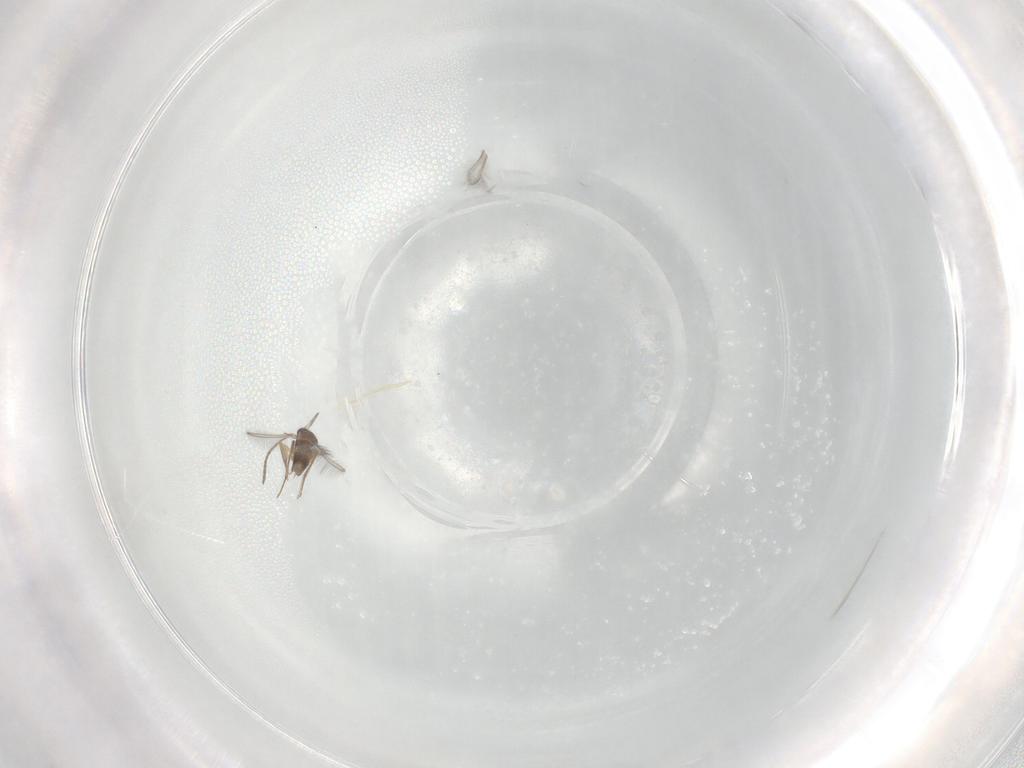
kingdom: Animalia
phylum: Arthropoda
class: Insecta
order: Hymenoptera
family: Mymaridae
